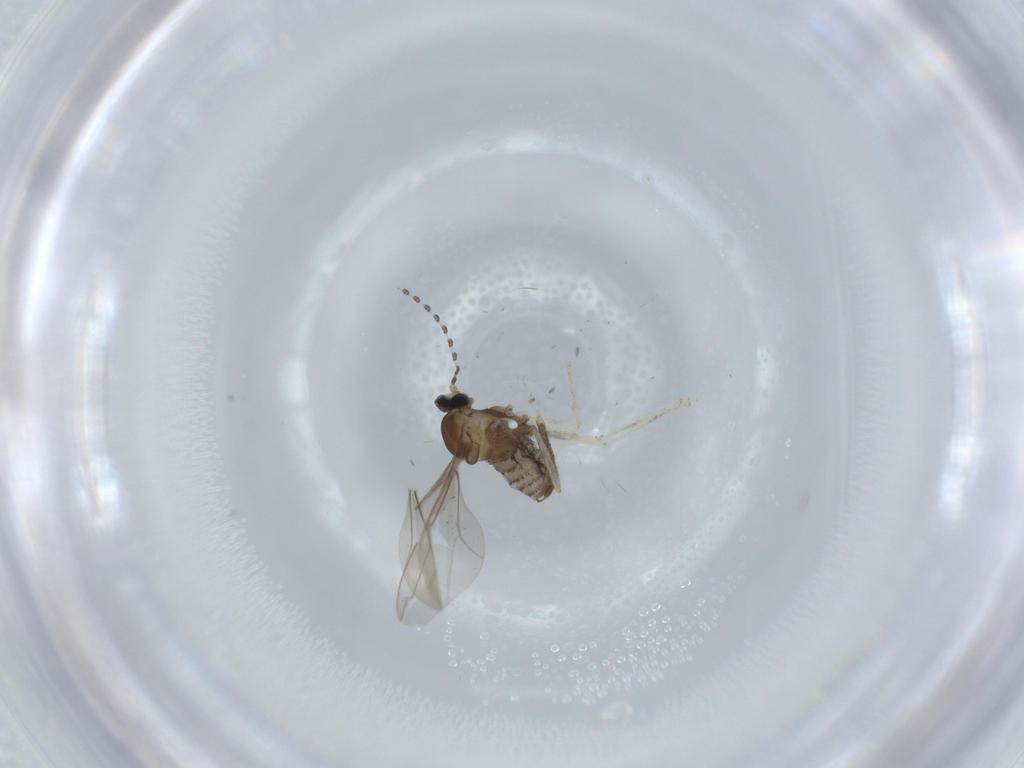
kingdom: Animalia
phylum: Arthropoda
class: Insecta
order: Diptera
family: Cecidomyiidae
